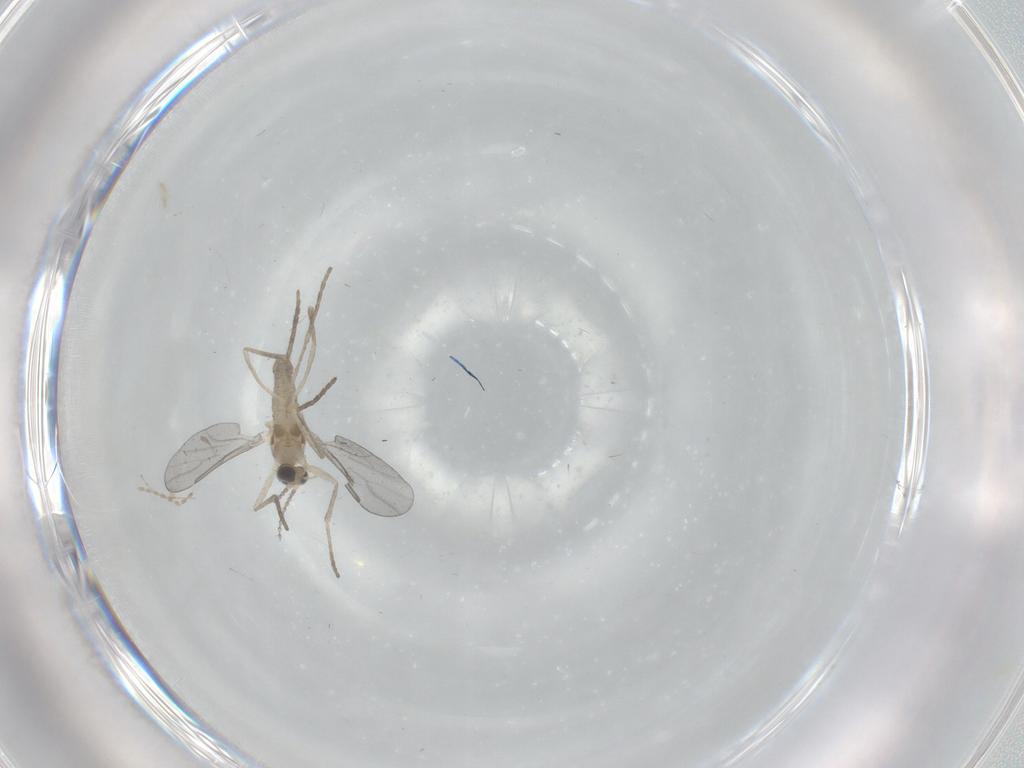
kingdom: Animalia
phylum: Arthropoda
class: Insecta
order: Diptera
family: Cecidomyiidae
